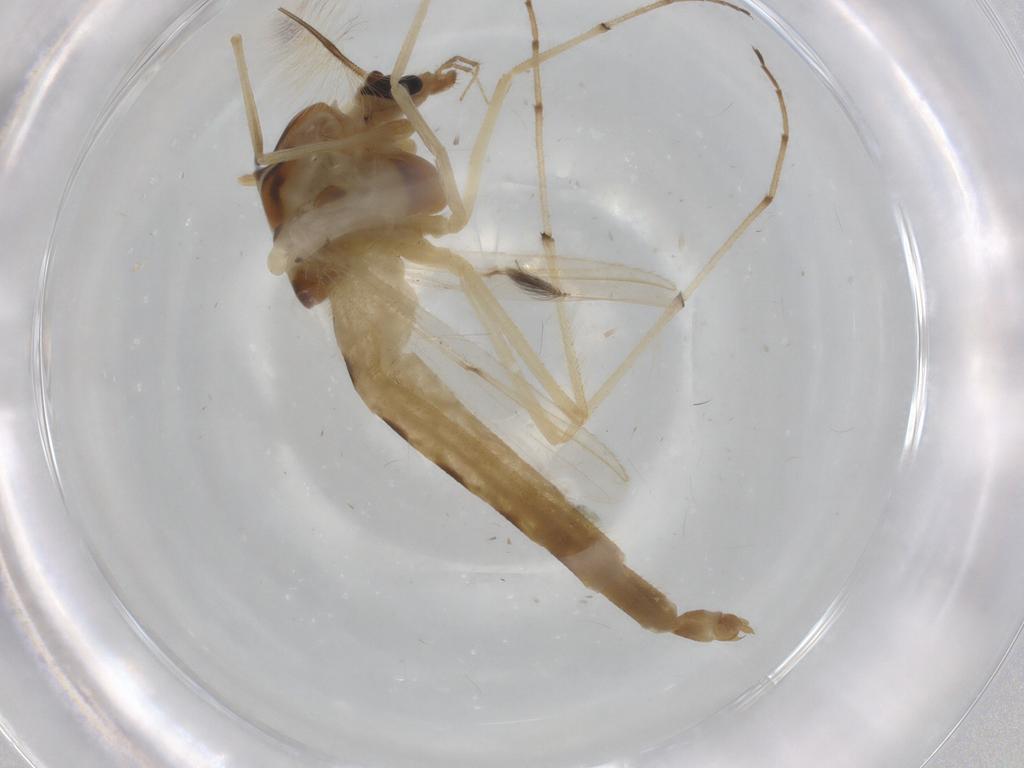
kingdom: Animalia
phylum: Arthropoda
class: Insecta
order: Diptera
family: Chironomidae
